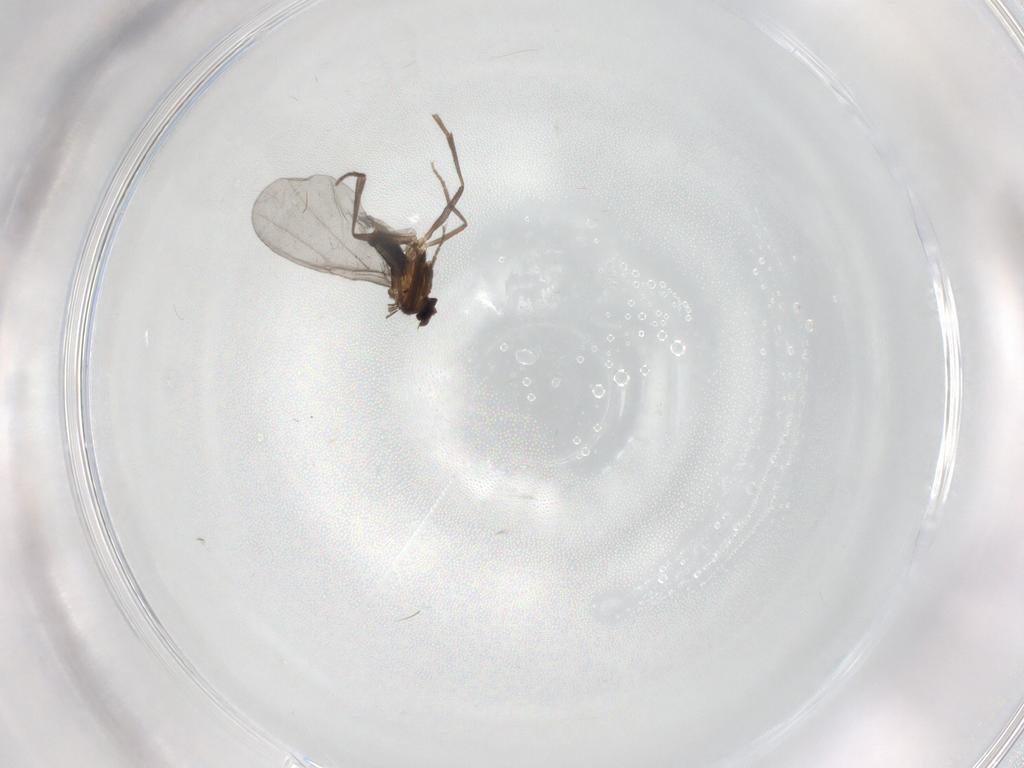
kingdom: Animalia
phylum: Arthropoda
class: Insecta
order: Diptera
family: Phoridae
